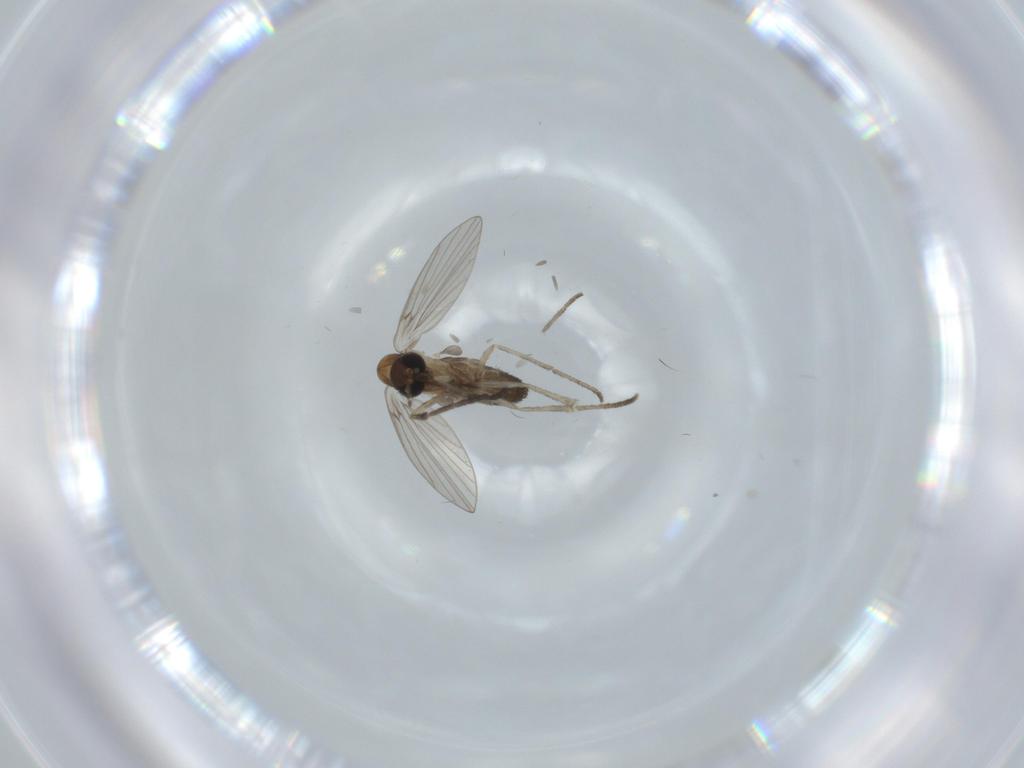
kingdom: Animalia
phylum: Arthropoda
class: Insecta
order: Diptera
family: Psychodidae
